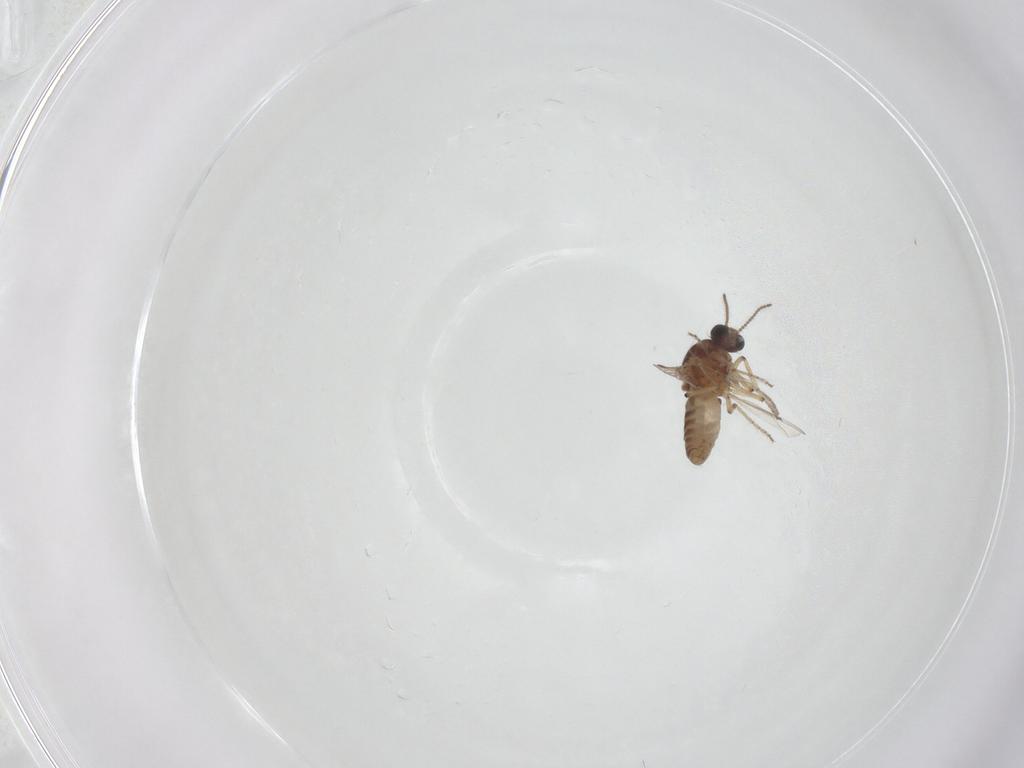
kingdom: Animalia
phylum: Arthropoda
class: Insecta
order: Diptera
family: Ceratopogonidae
